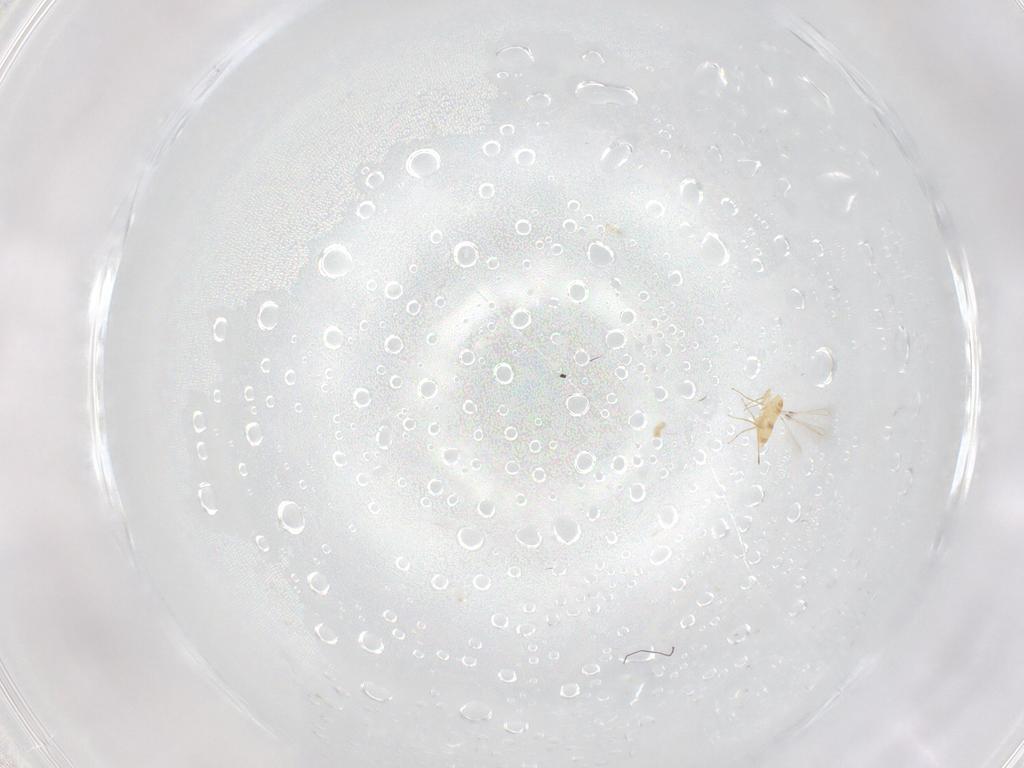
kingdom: Animalia
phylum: Arthropoda
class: Insecta
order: Hymenoptera
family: Mymaridae
